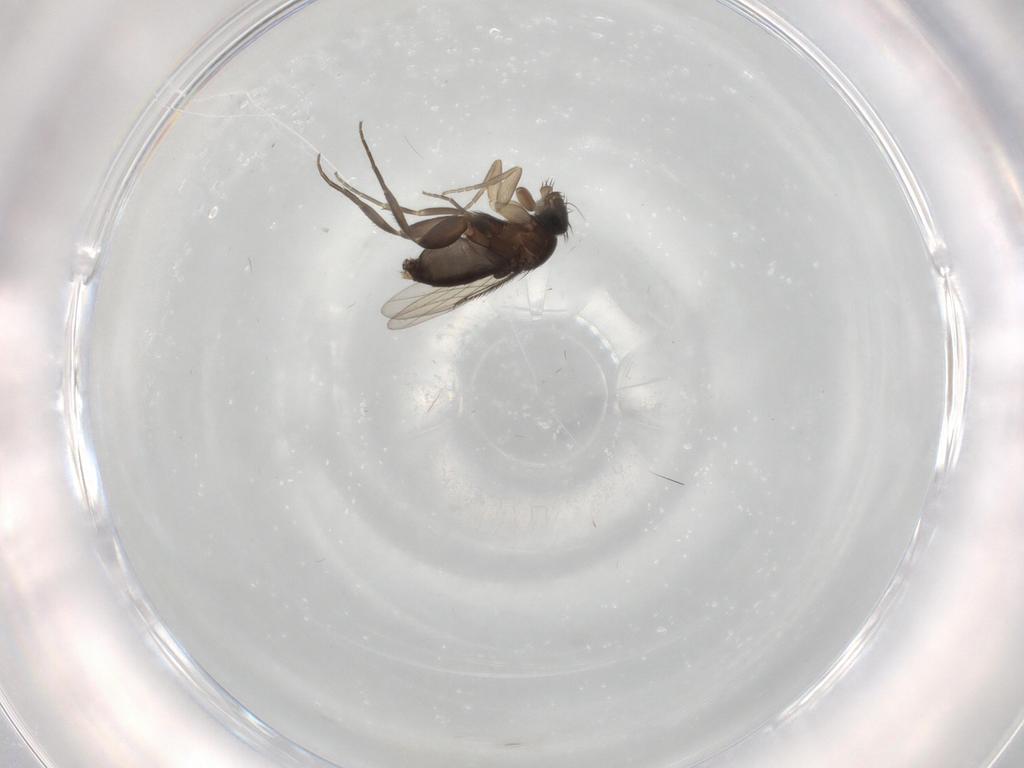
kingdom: Animalia
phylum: Arthropoda
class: Insecta
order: Diptera
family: Phoridae
